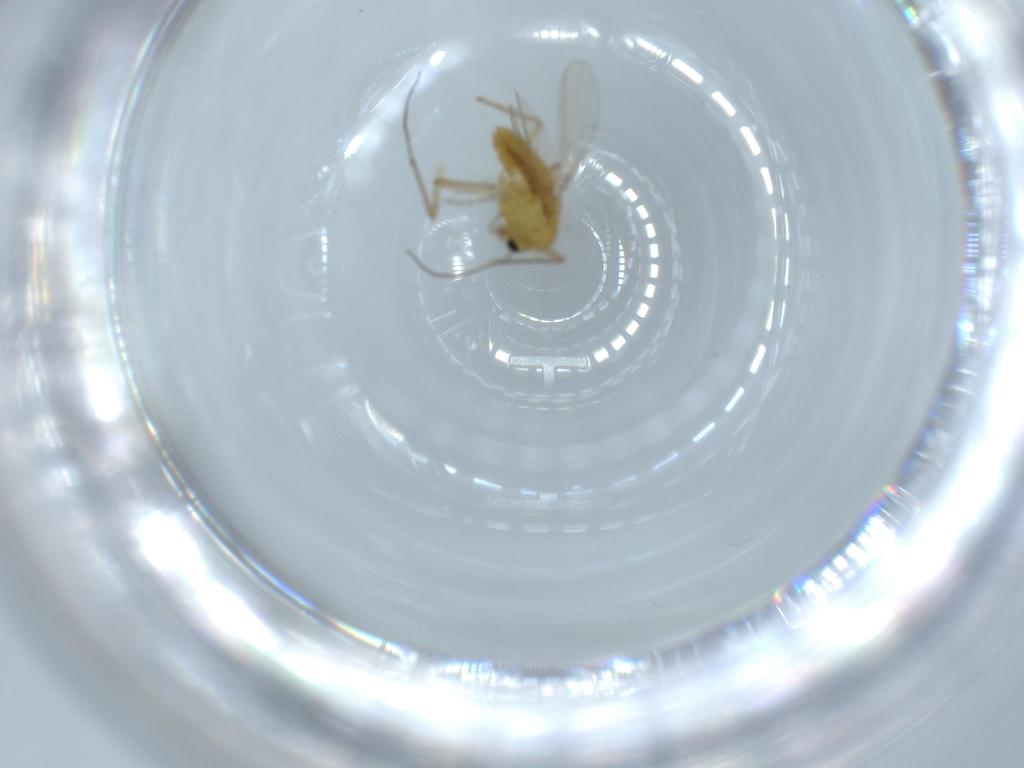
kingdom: Animalia
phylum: Arthropoda
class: Insecta
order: Diptera
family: Chironomidae
